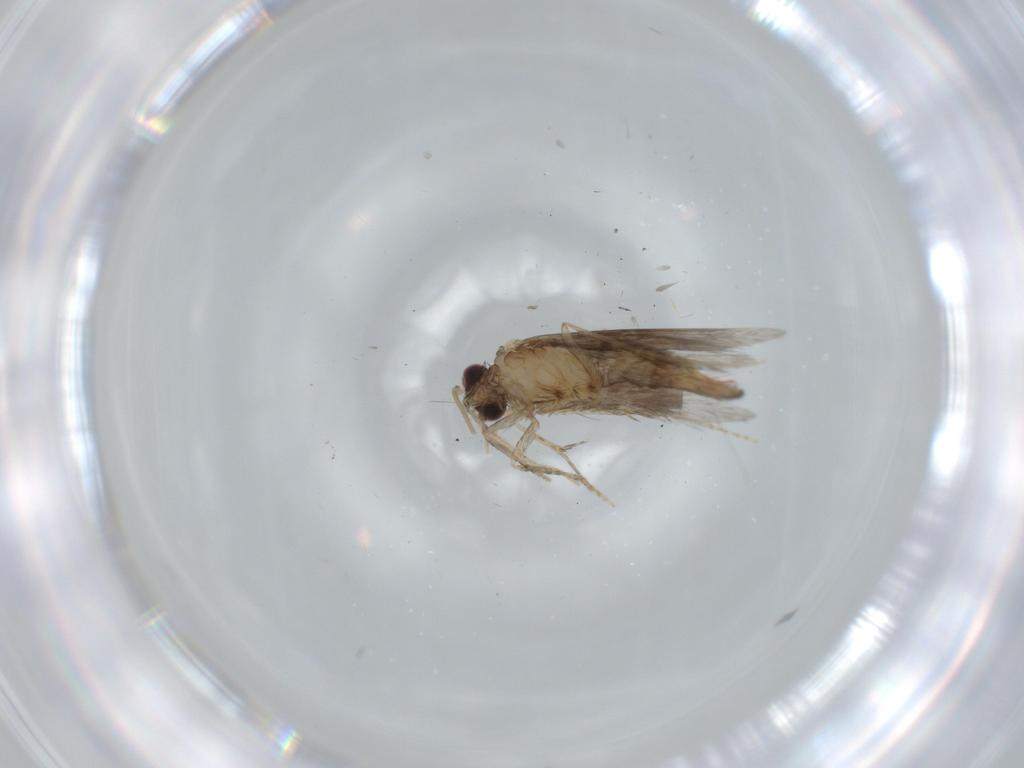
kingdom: Animalia
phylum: Arthropoda
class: Insecta
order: Trichoptera
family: Hydroptilidae
